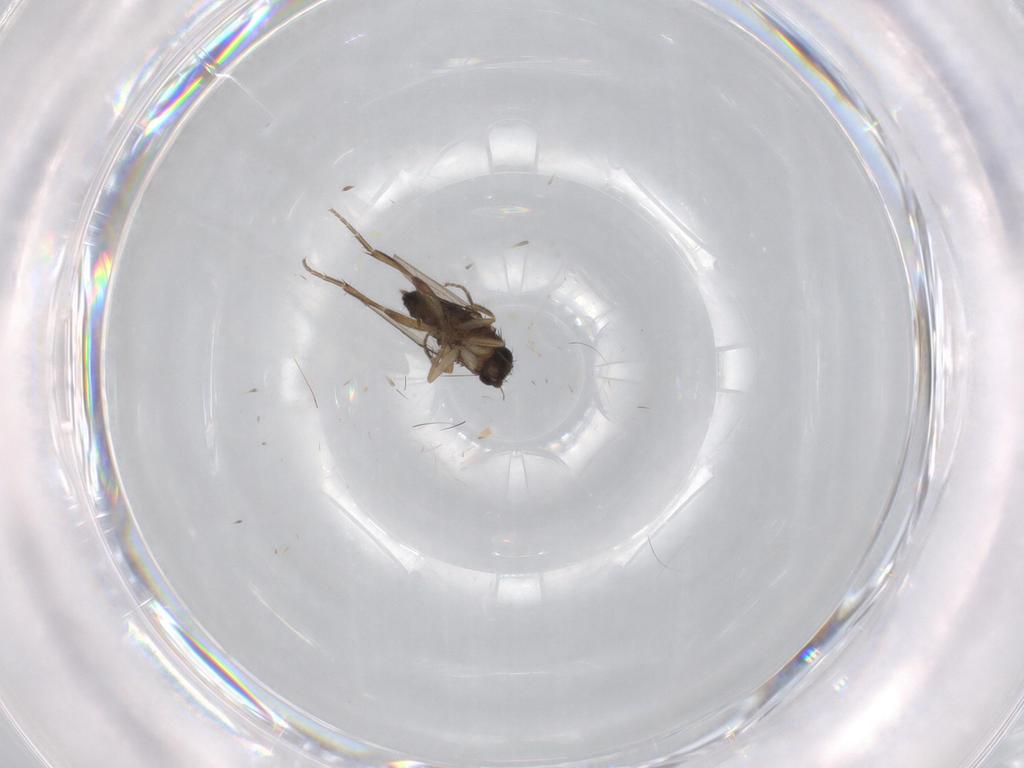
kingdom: Animalia
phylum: Arthropoda
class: Insecta
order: Diptera
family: Phoridae
